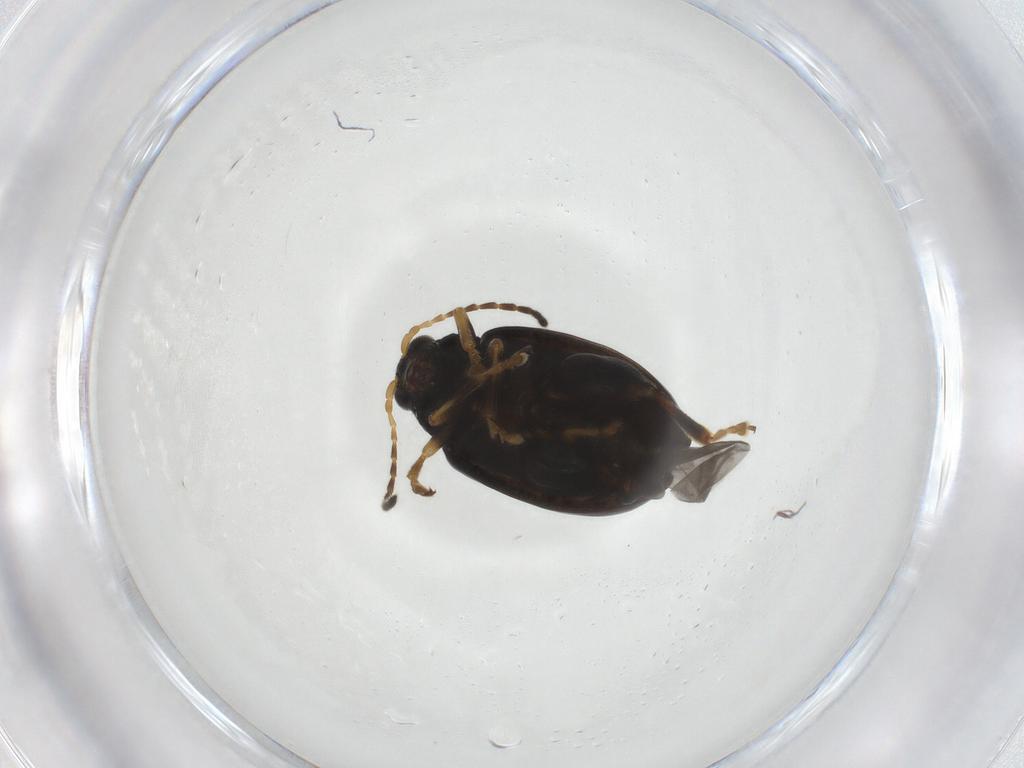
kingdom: Animalia
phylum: Arthropoda
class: Insecta
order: Coleoptera
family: Chrysomelidae
